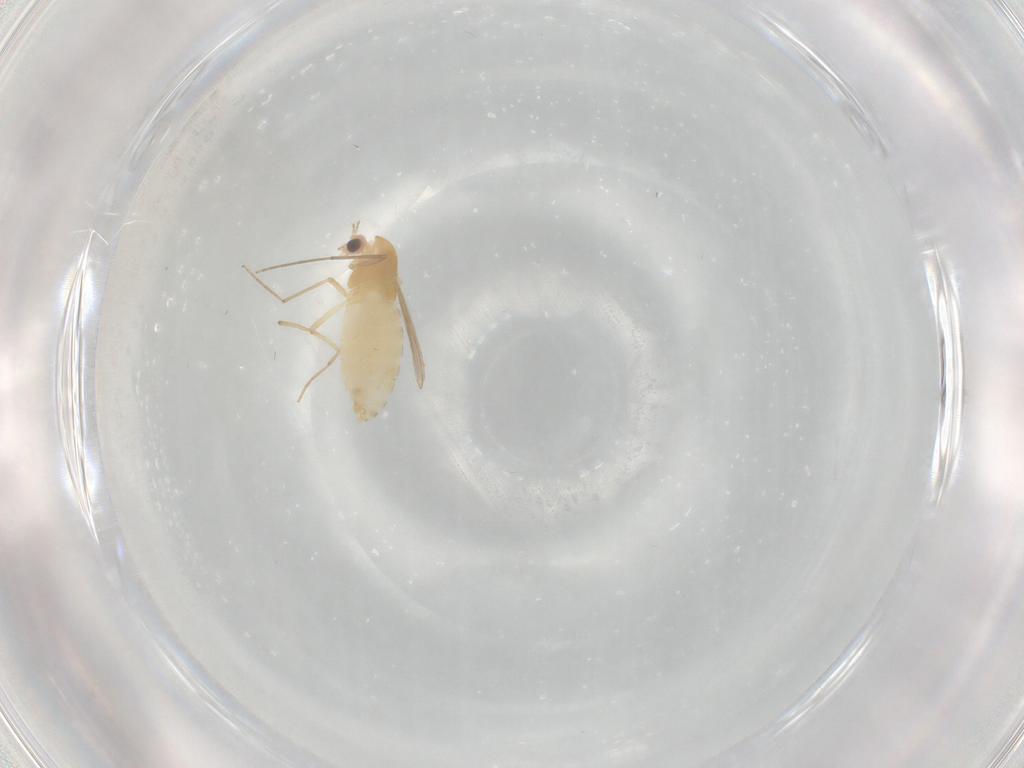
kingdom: Animalia
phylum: Arthropoda
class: Insecta
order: Diptera
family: Chironomidae
